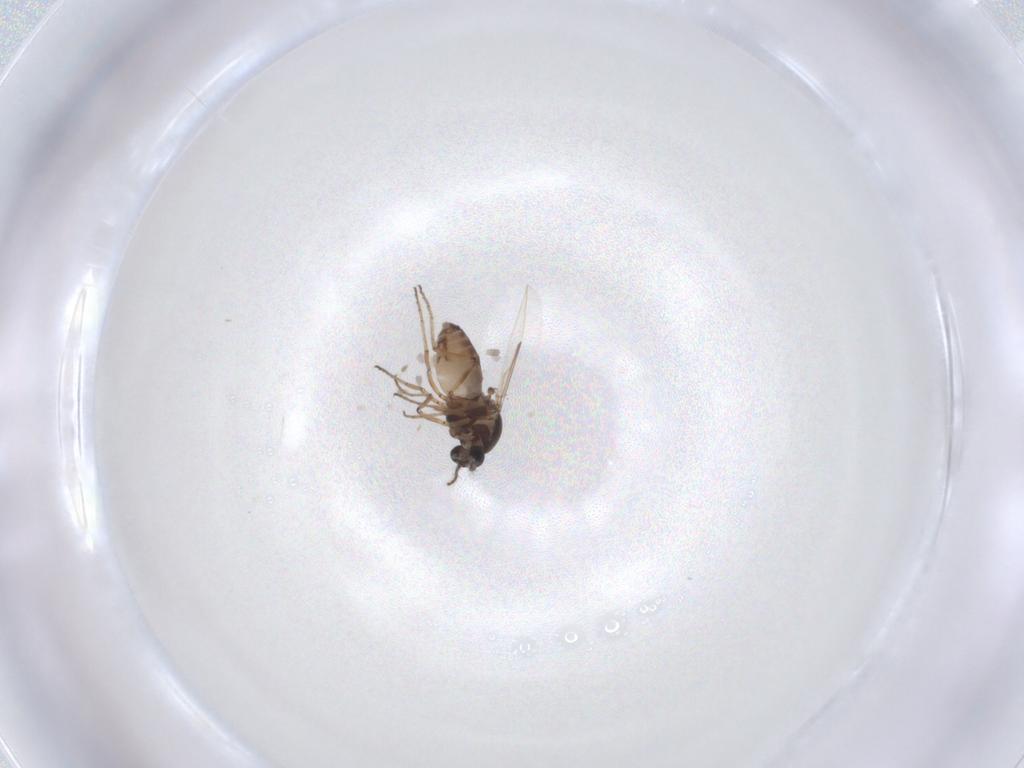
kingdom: Animalia
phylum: Arthropoda
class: Insecta
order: Diptera
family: Ceratopogonidae
